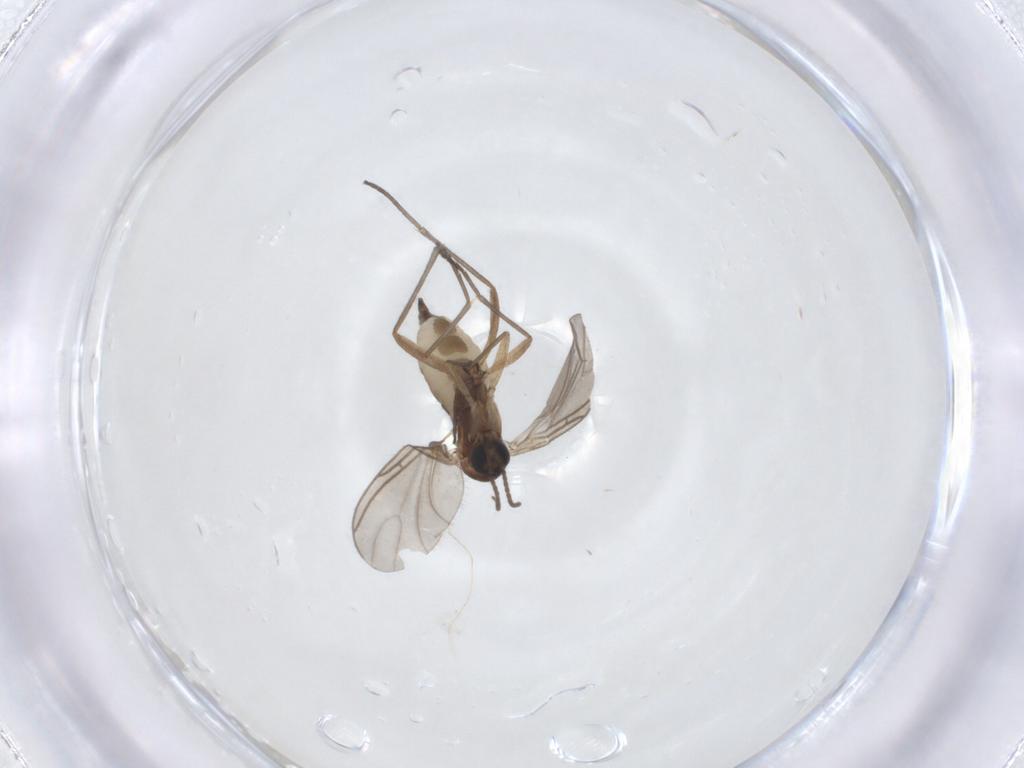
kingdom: Animalia
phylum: Arthropoda
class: Insecta
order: Diptera
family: Sciaridae
